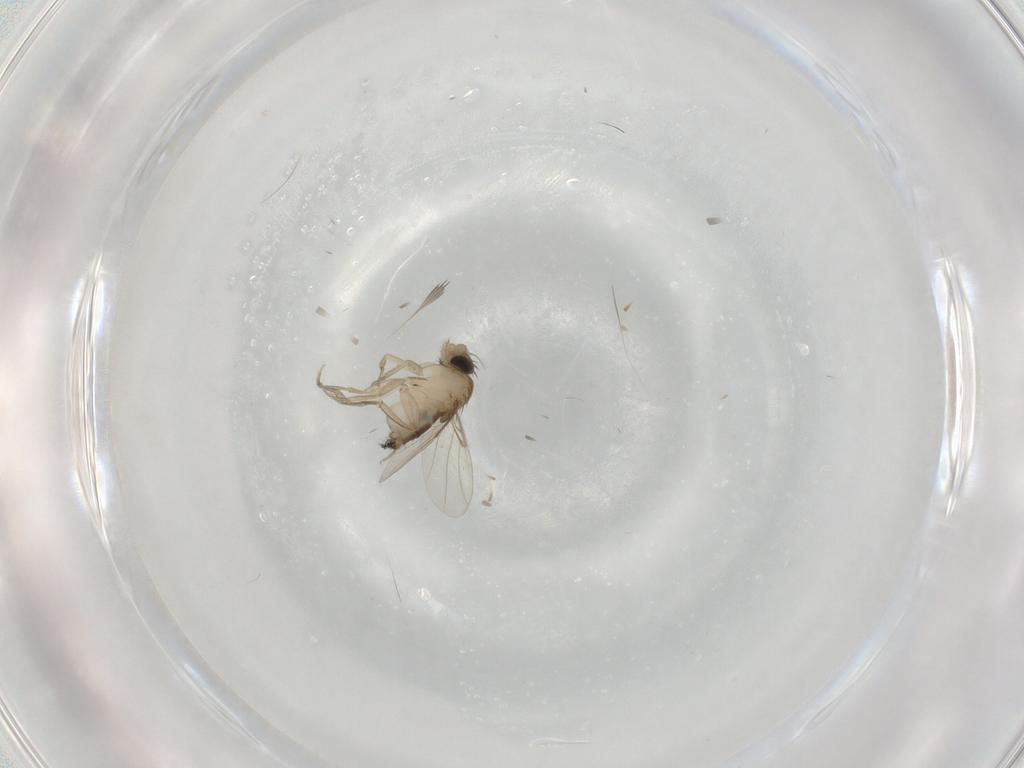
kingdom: Animalia
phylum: Arthropoda
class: Insecta
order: Diptera
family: Phoridae
